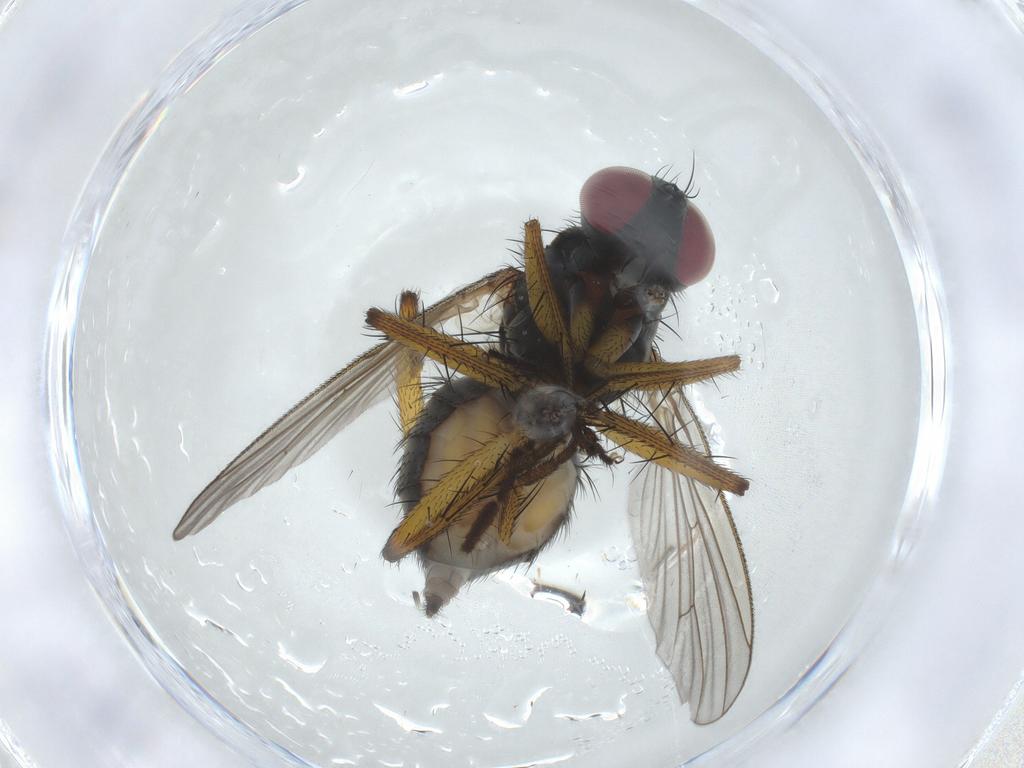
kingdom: Animalia
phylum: Arthropoda
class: Insecta
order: Diptera
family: Muscidae
